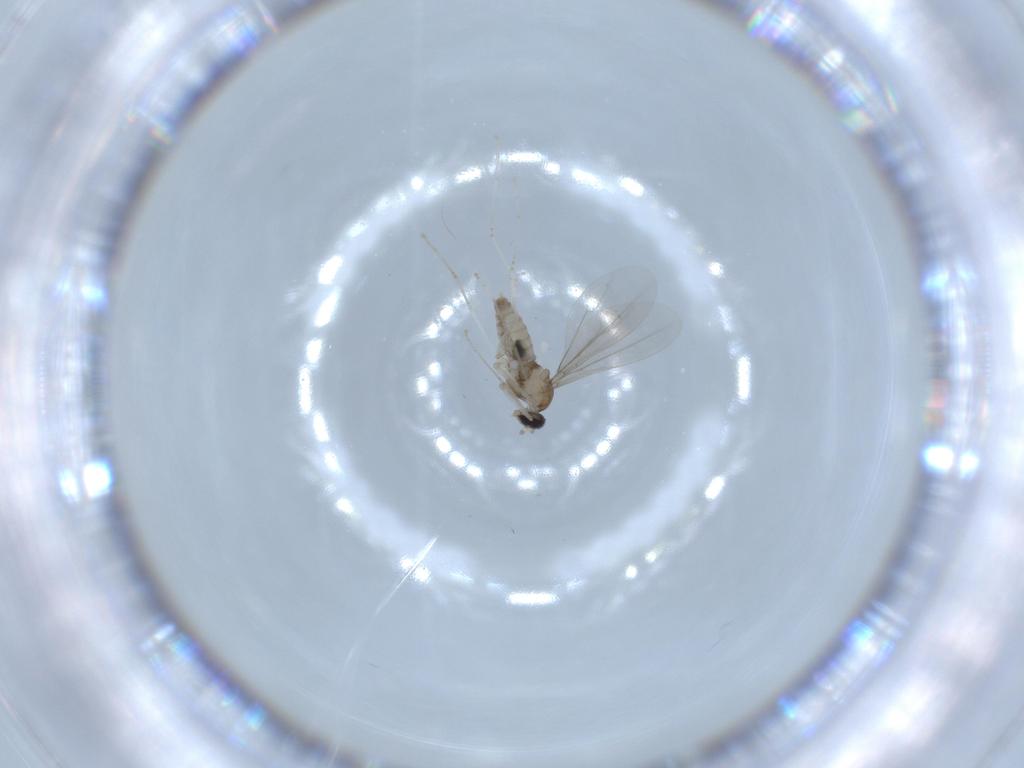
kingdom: Animalia
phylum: Arthropoda
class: Insecta
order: Diptera
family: Cecidomyiidae
